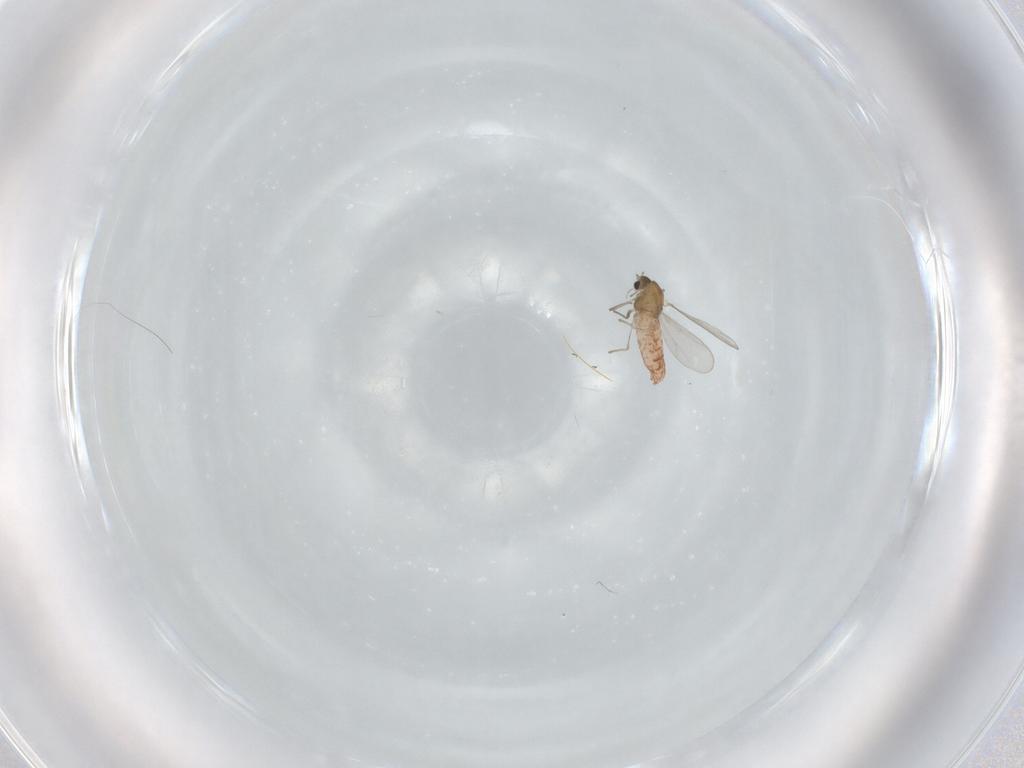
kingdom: Animalia
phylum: Arthropoda
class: Insecta
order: Diptera
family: Chironomidae
